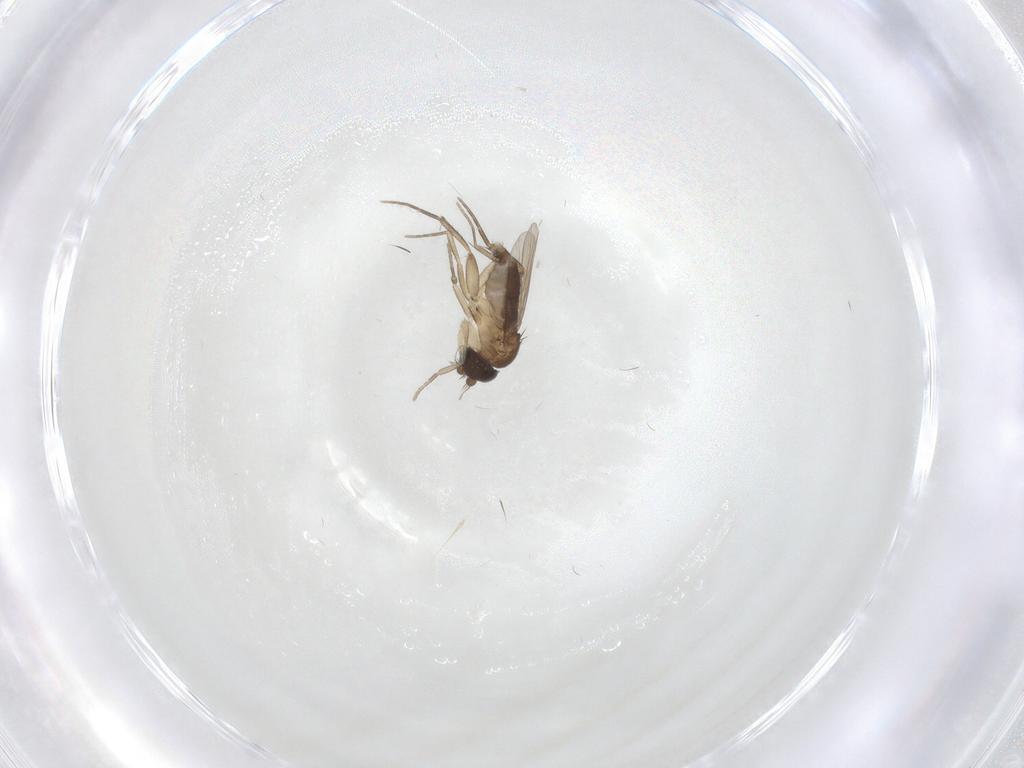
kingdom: Animalia
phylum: Arthropoda
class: Insecta
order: Diptera
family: Phoridae
